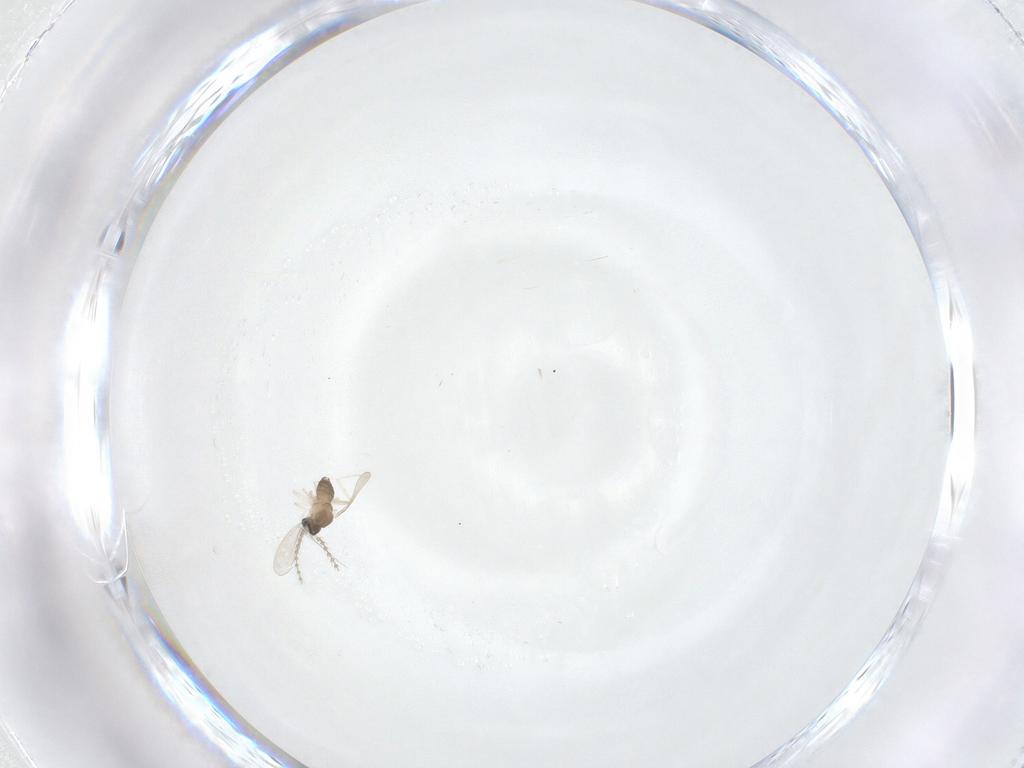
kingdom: Animalia
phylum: Arthropoda
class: Insecta
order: Diptera
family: Cecidomyiidae
